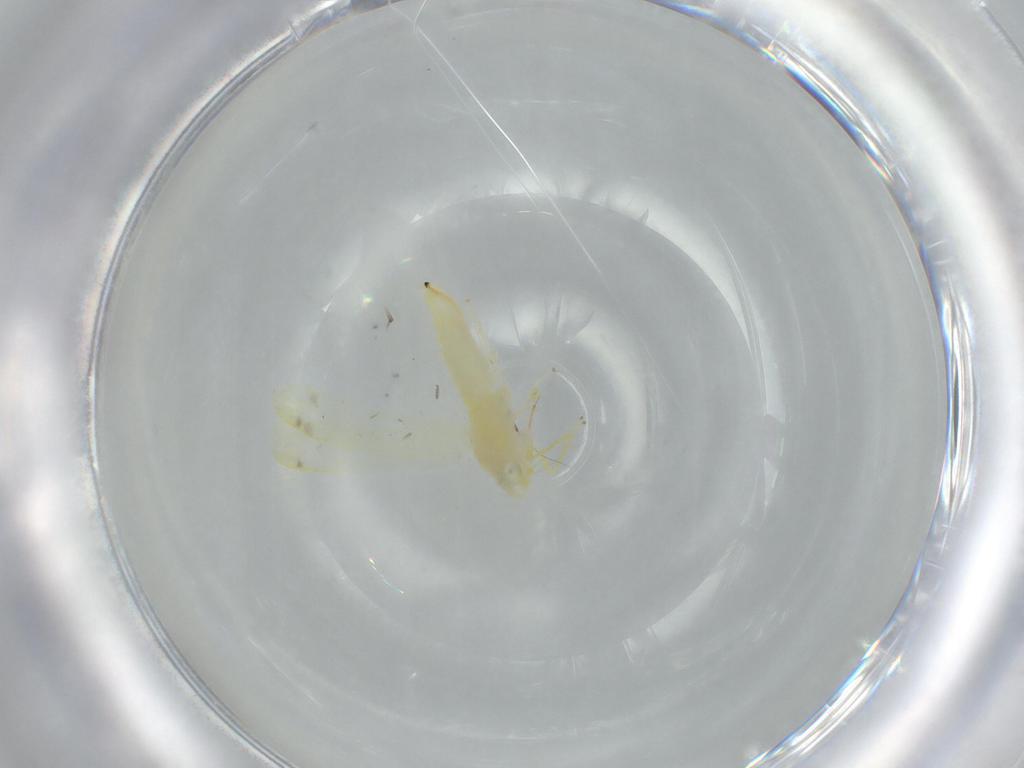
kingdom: Animalia
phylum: Arthropoda
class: Insecta
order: Hemiptera
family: Cicadellidae
